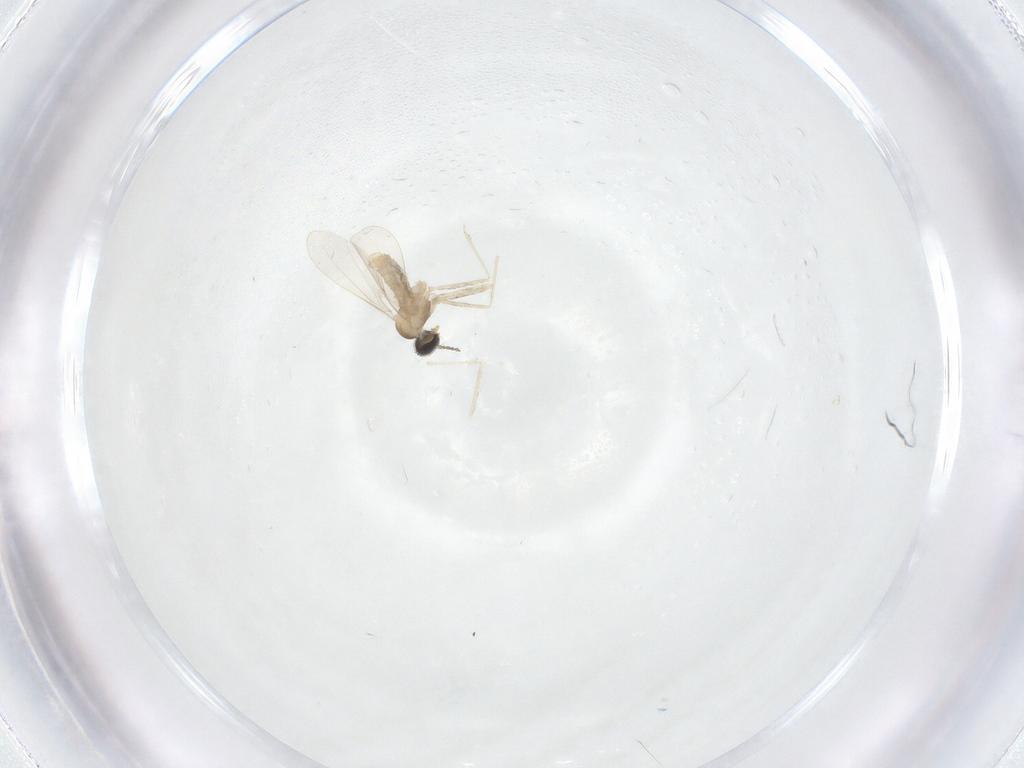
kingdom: Animalia
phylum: Arthropoda
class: Insecta
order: Diptera
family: Cecidomyiidae
